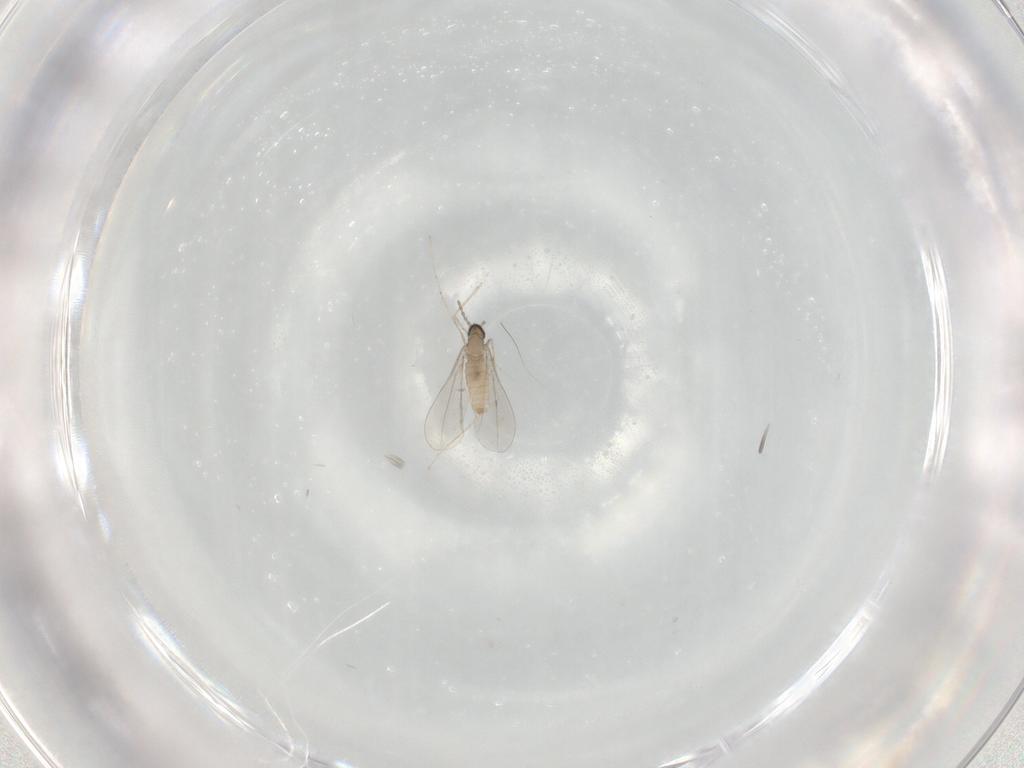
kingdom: Animalia
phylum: Arthropoda
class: Insecta
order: Diptera
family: Cecidomyiidae
